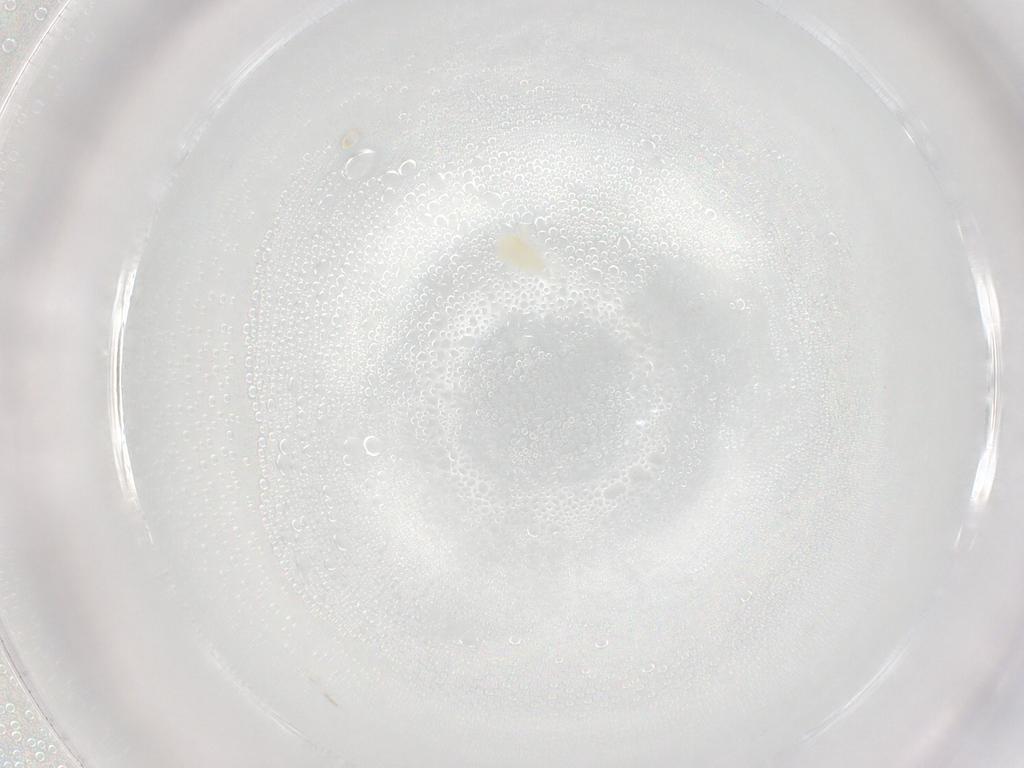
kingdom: Animalia
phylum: Arthropoda
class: Arachnida
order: Trombidiformes
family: Eupodidae
